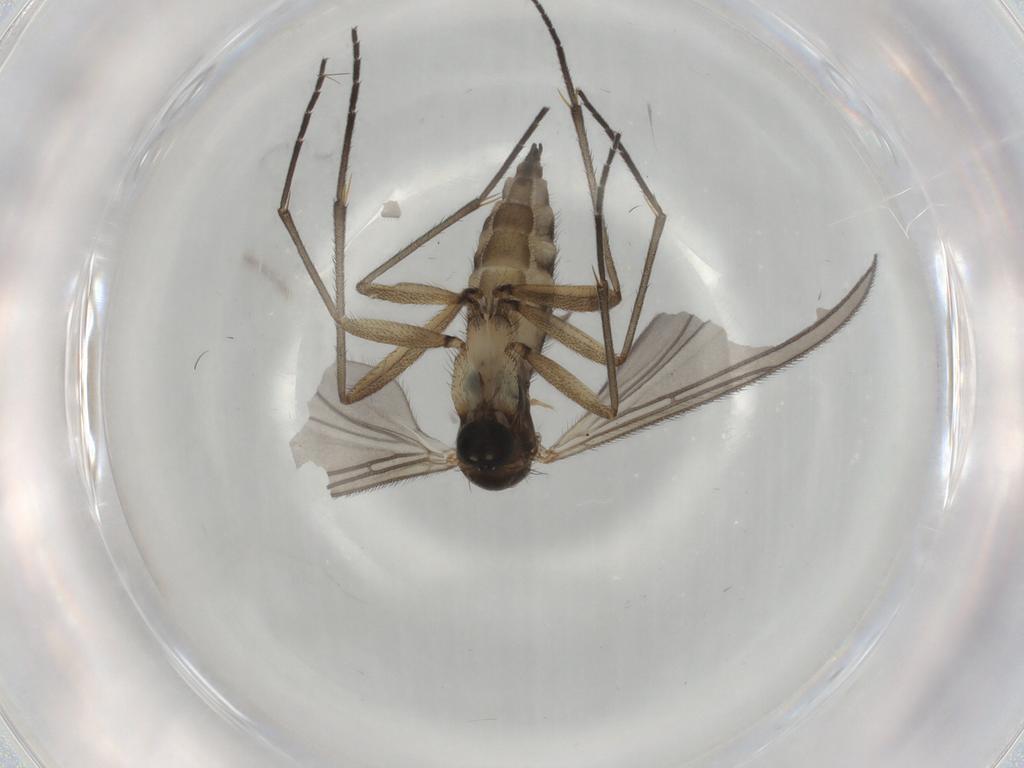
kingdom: Animalia
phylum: Arthropoda
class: Insecta
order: Diptera
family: Sciaridae
